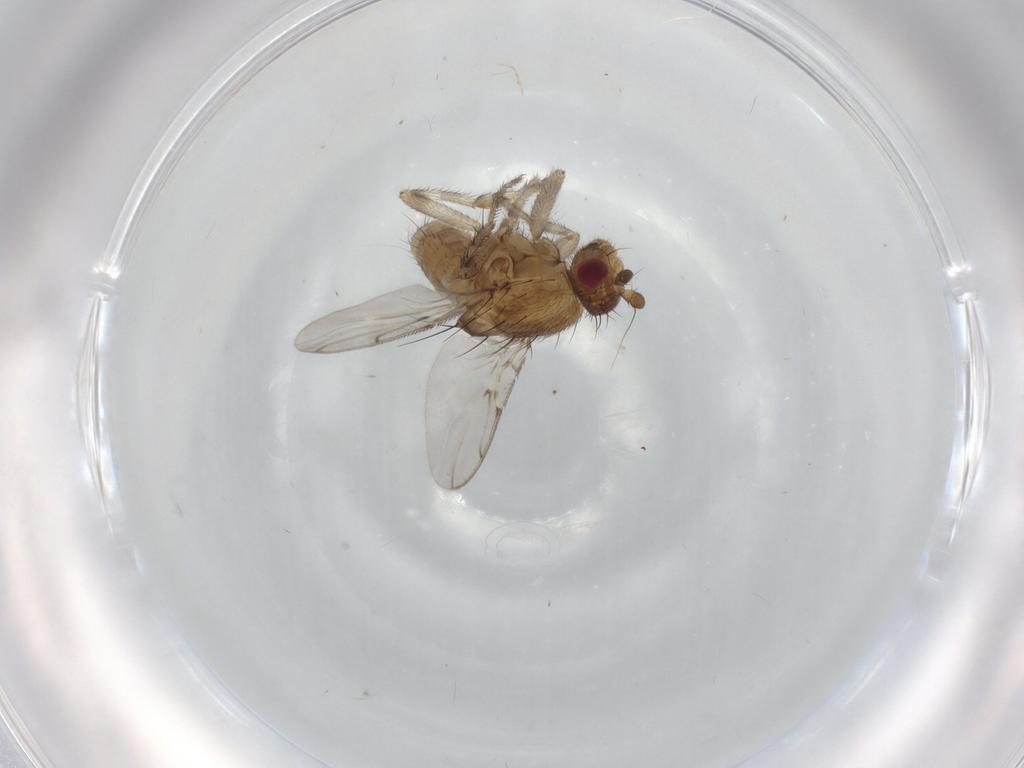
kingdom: Animalia
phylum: Arthropoda
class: Insecta
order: Diptera
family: Sphaeroceridae
